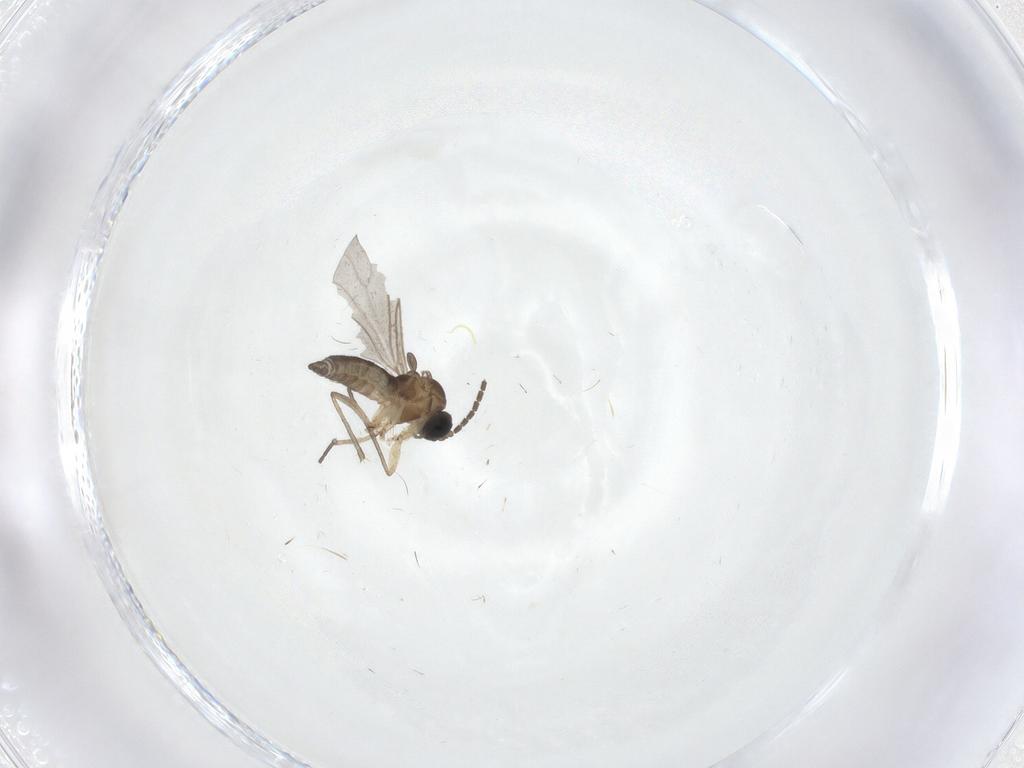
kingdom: Animalia
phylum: Arthropoda
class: Insecta
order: Diptera
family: Sciaridae
